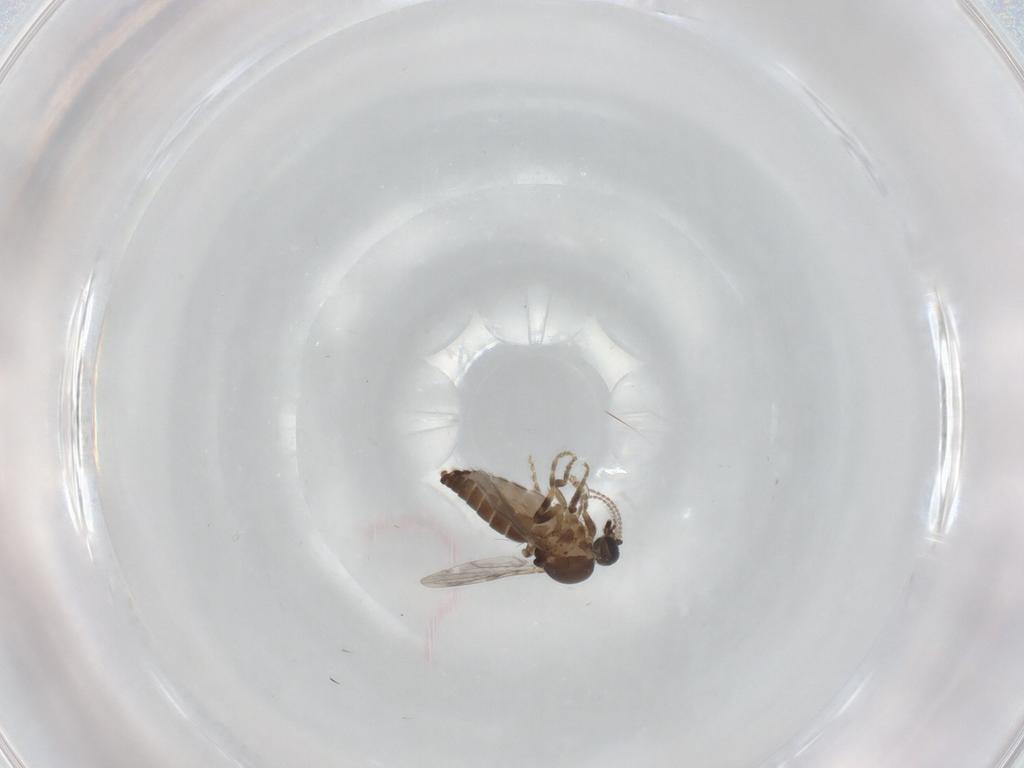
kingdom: Animalia
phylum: Arthropoda
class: Insecta
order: Diptera
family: Ceratopogonidae
